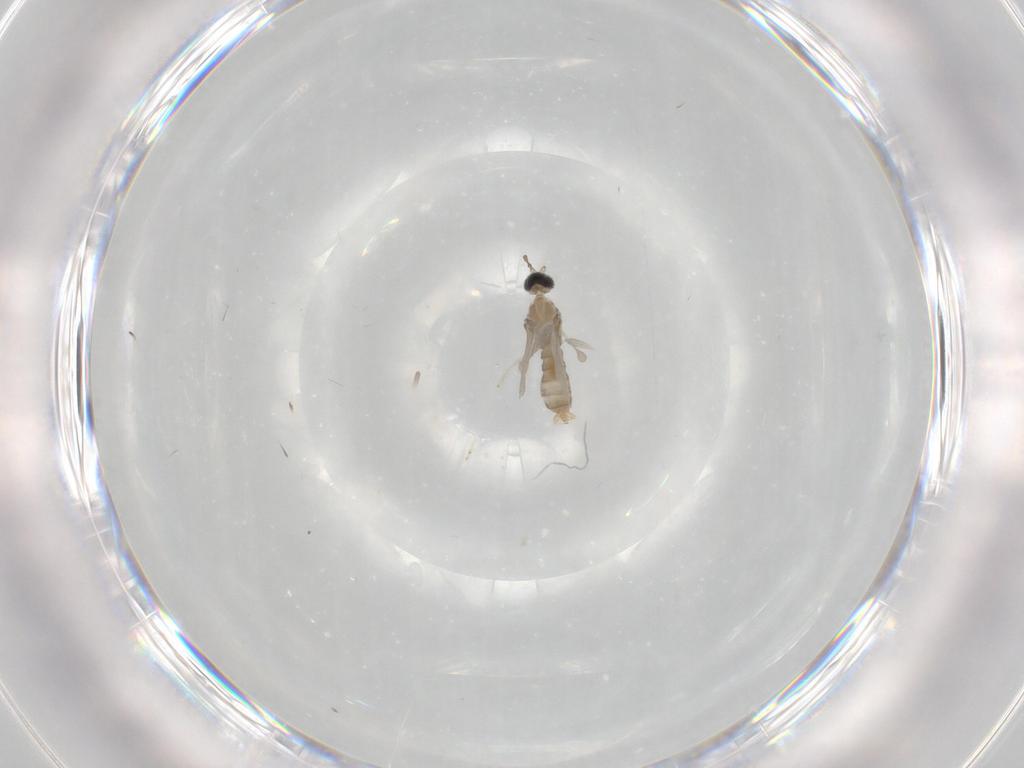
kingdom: Animalia
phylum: Arthropoda
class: Insecta
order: Diptera
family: Cecidomyiidae
